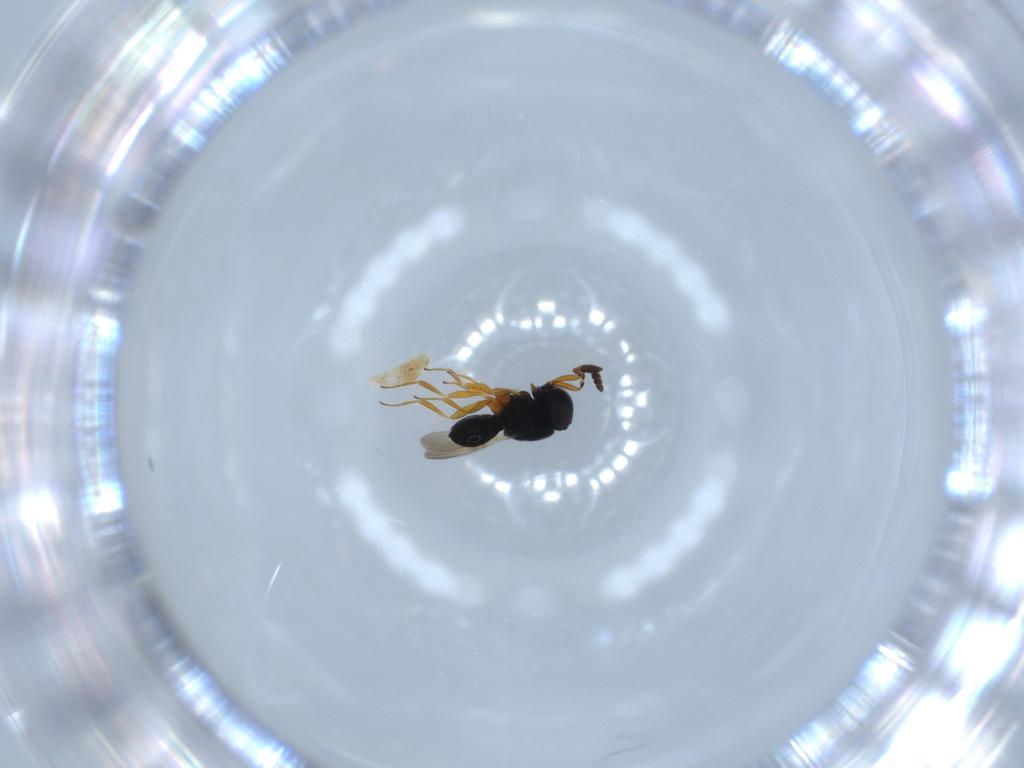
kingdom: Animalia
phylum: Arthropoda
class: Insecta
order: Hymenoptera
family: Scelionidae
